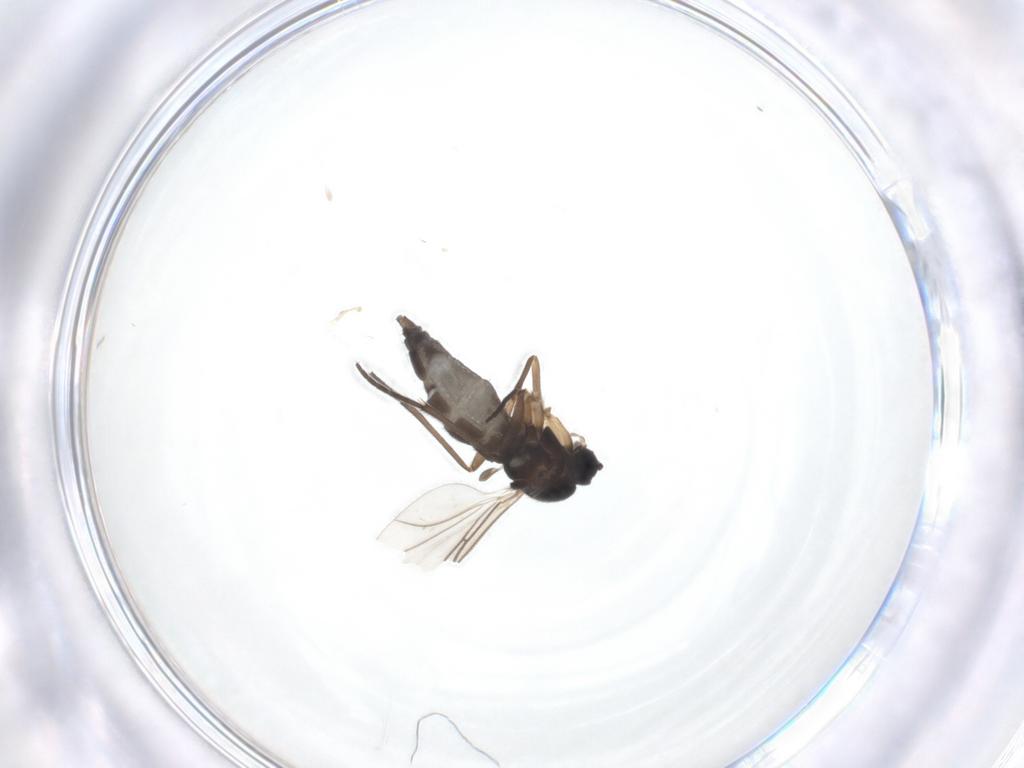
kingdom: Animalia
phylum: Arthropoda
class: Insecta
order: Diptera
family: Sciaridae
